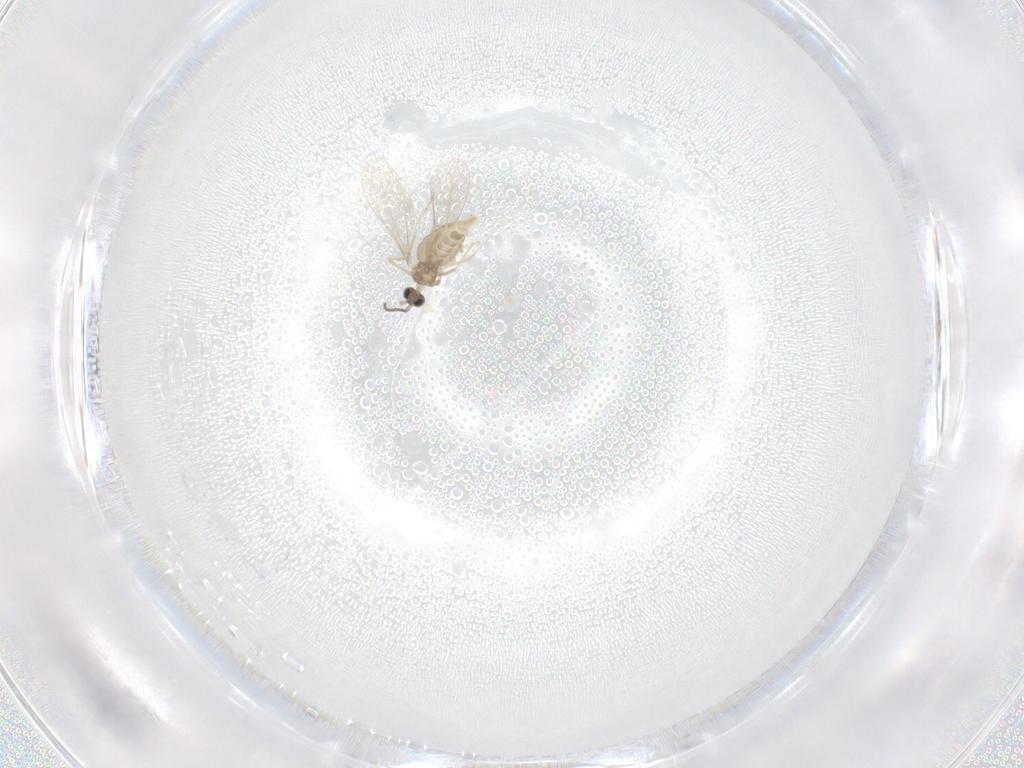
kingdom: Animalia
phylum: Arthropoda
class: Insecta
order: Diptera
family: Cecidomyiidae
